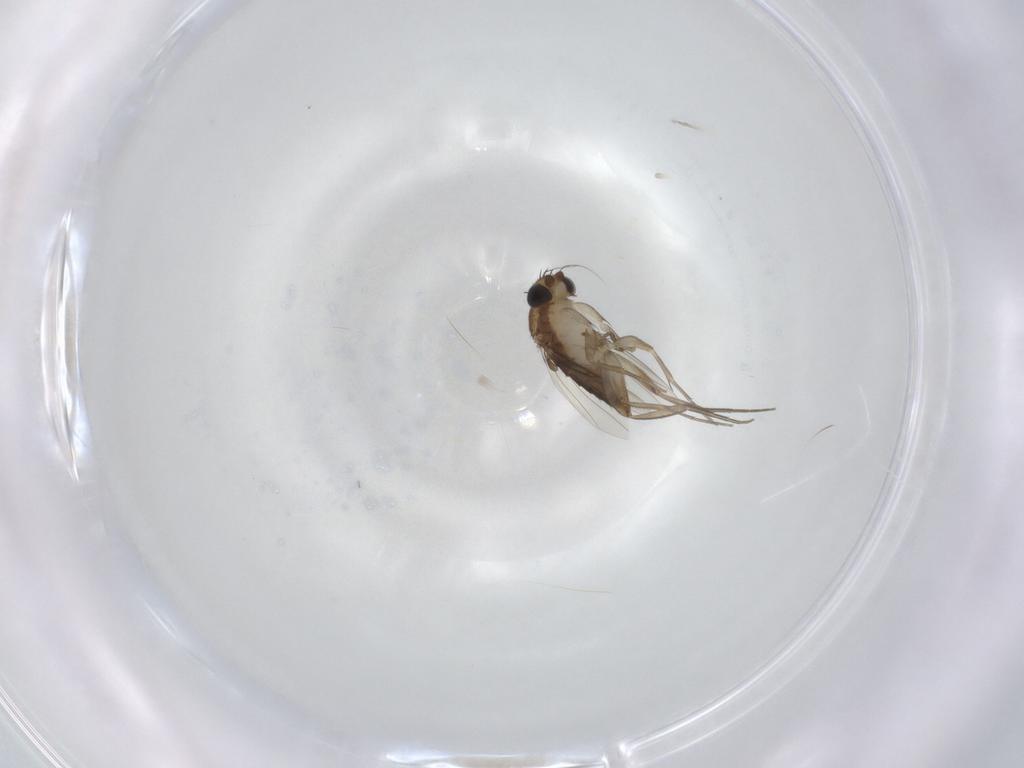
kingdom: Animalia
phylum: Arthropoda
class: Insecta
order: Diptera
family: Phoridae
